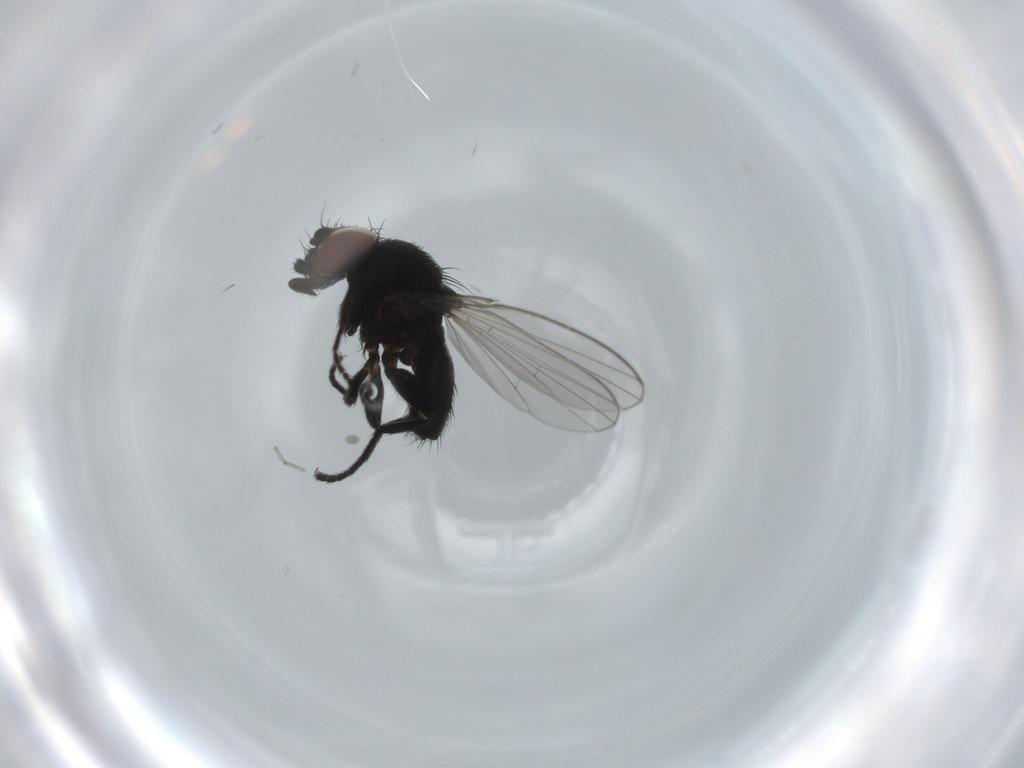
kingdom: Animalia
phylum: Arthropoda
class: Insecta
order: Diptera
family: Milichiidae
